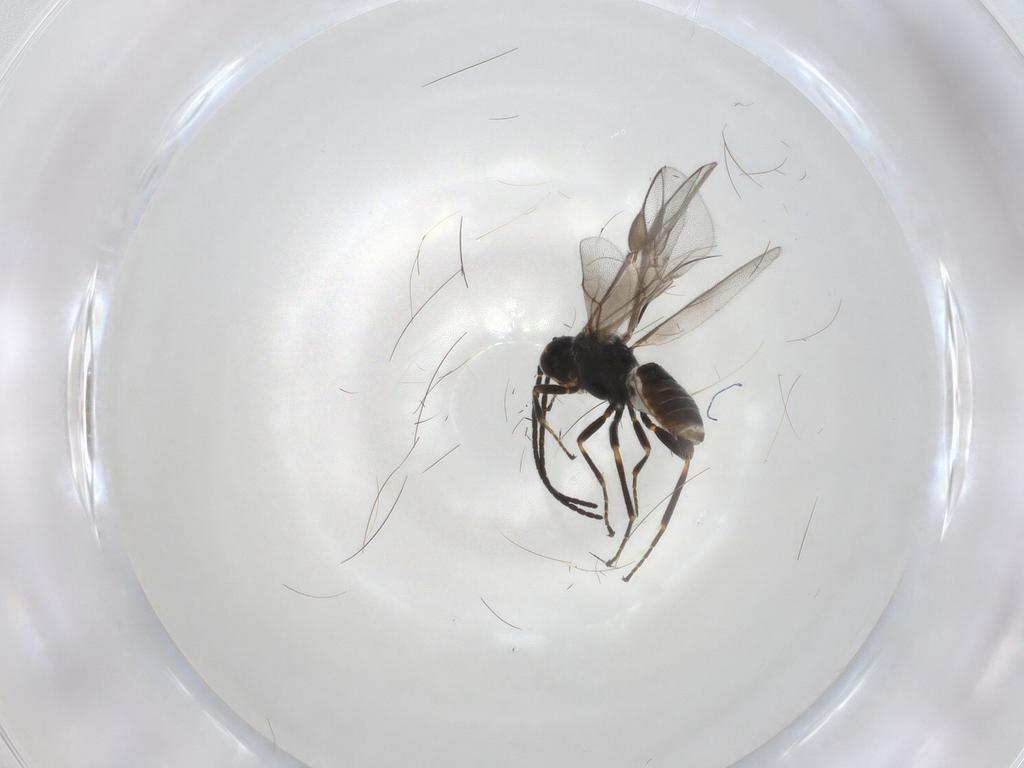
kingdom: Animalia
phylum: Arthropoda
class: Insecta
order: Hymenoptera
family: Braconidae
